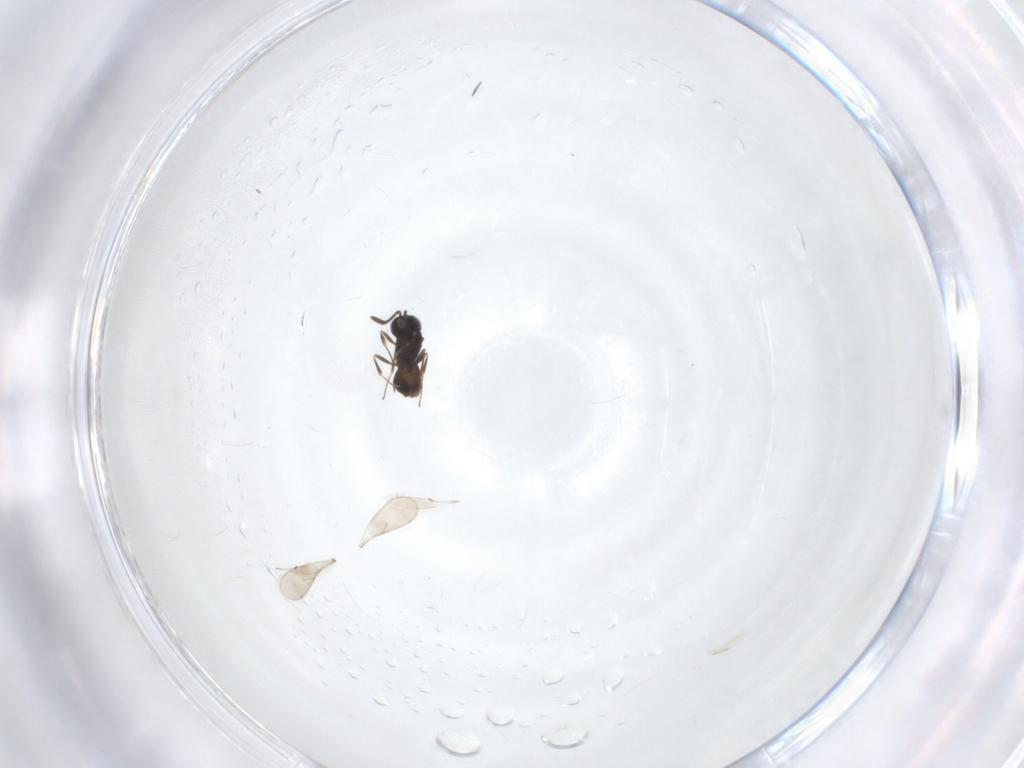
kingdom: Animalia
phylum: Arthropoda
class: Insecta
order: Hymenoptera
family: Scelionidae
